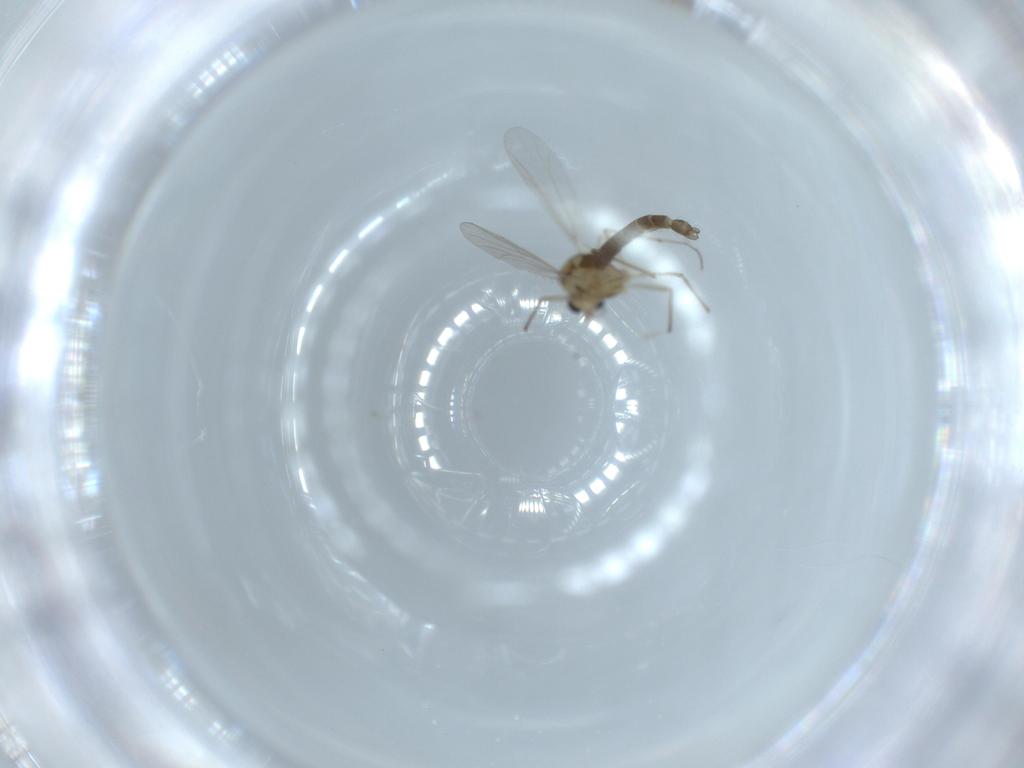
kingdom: Animalia
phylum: Arthropoda
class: Insecta
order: Diptera
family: Chironomidae
